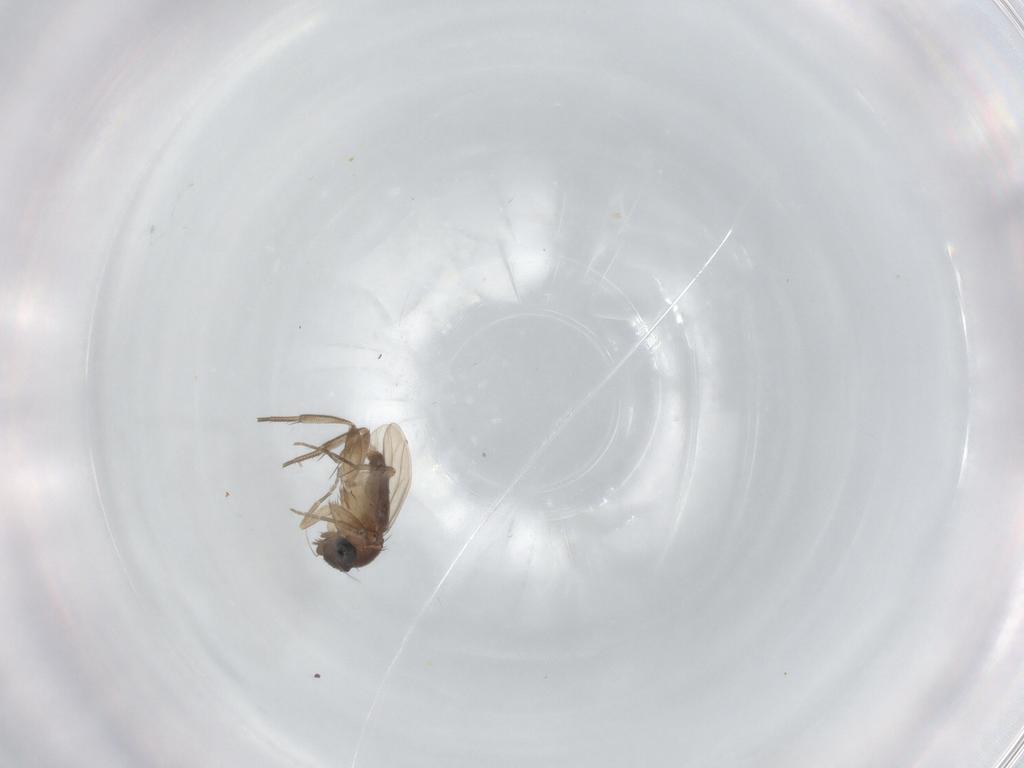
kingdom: Animalia
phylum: Arthropoda
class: Insecta
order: Diptera
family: Phoridae
